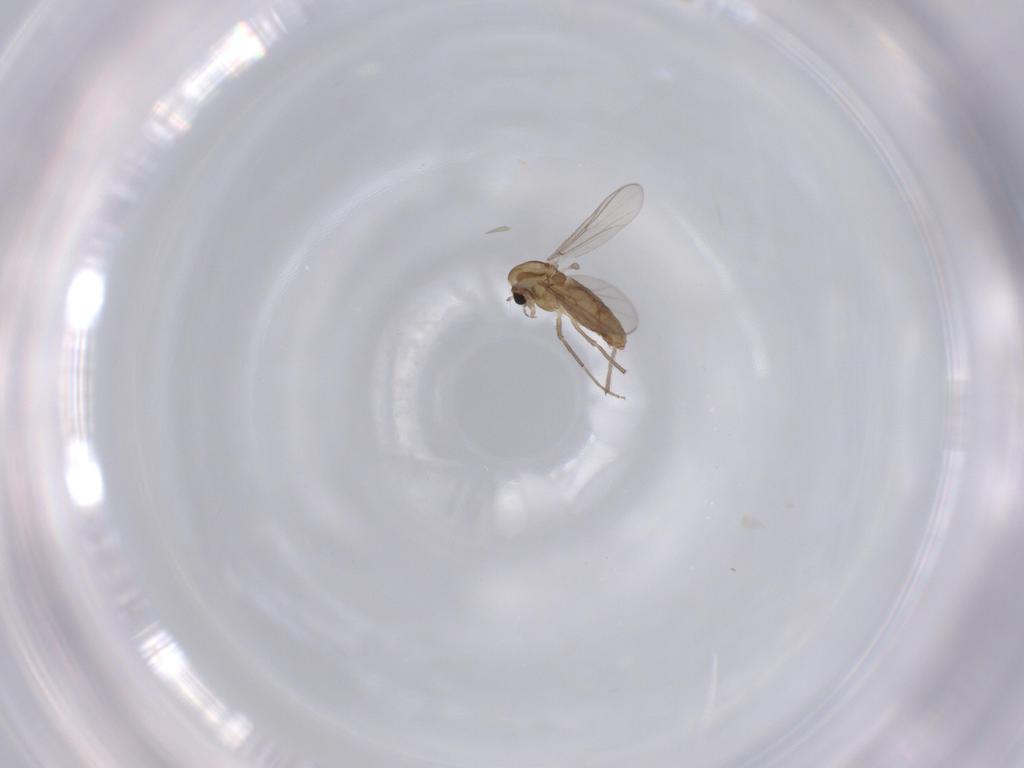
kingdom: Animalia
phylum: Arthropoda
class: Insecta
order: Diptera
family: Chironomidae
